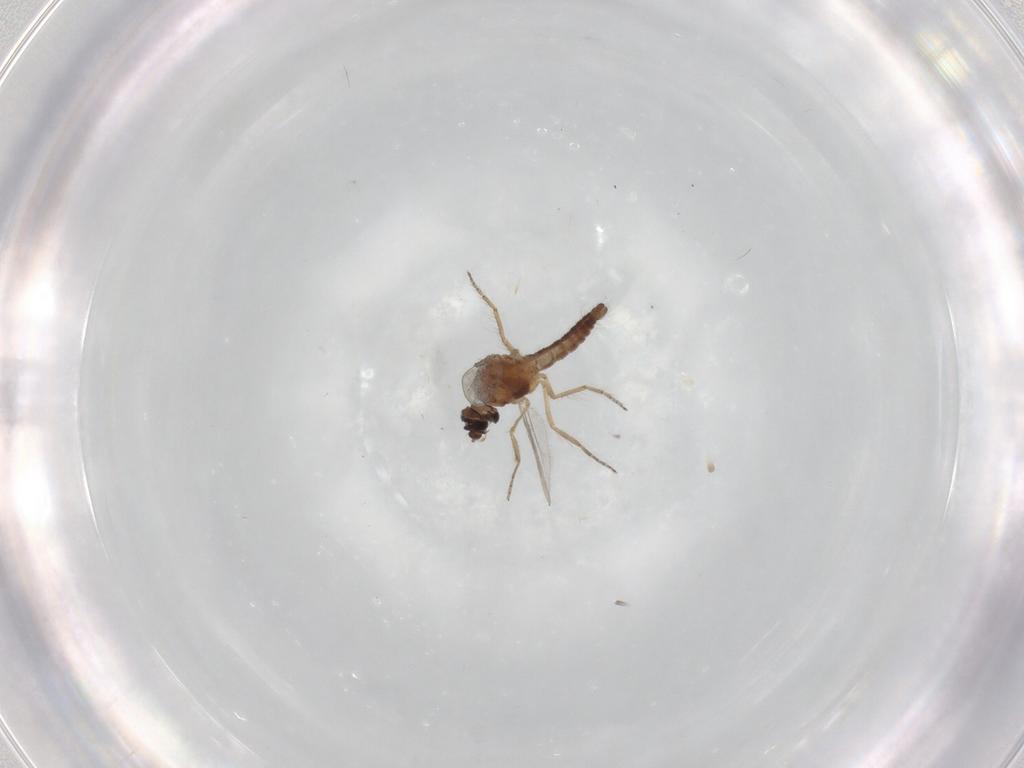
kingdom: Animalia
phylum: Arthropoda
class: Insecta
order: Diptera
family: Ceratopogonidae
